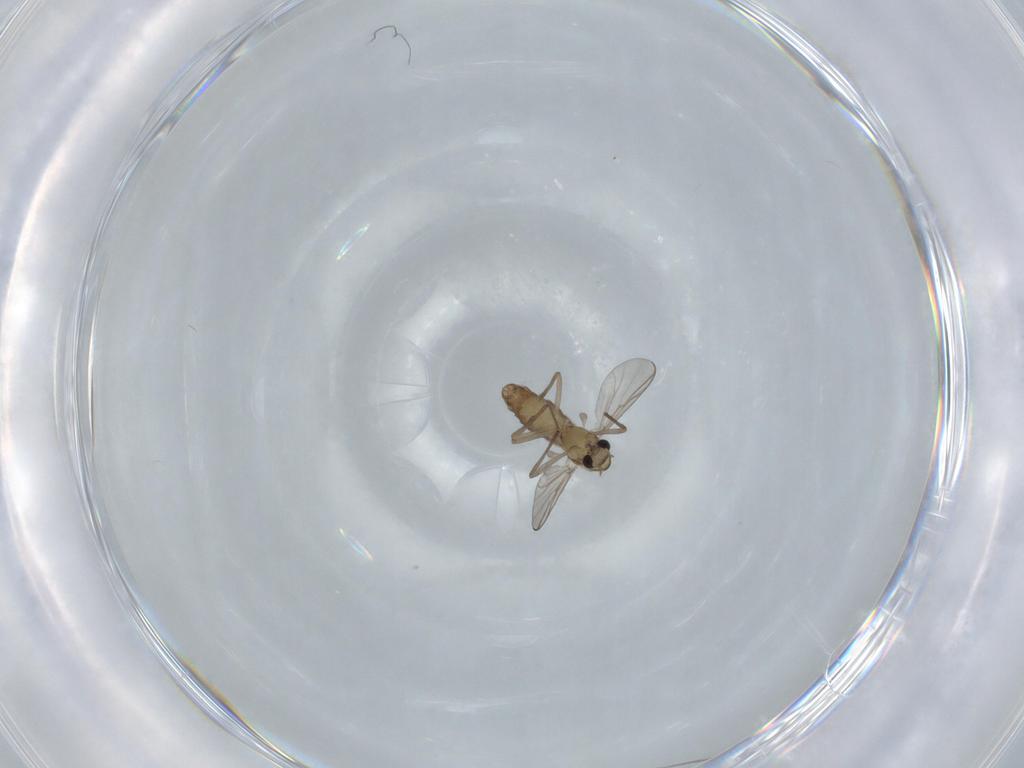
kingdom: Animalia
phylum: Arthropoda
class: Insecta
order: Diptera
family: Chironomidae
